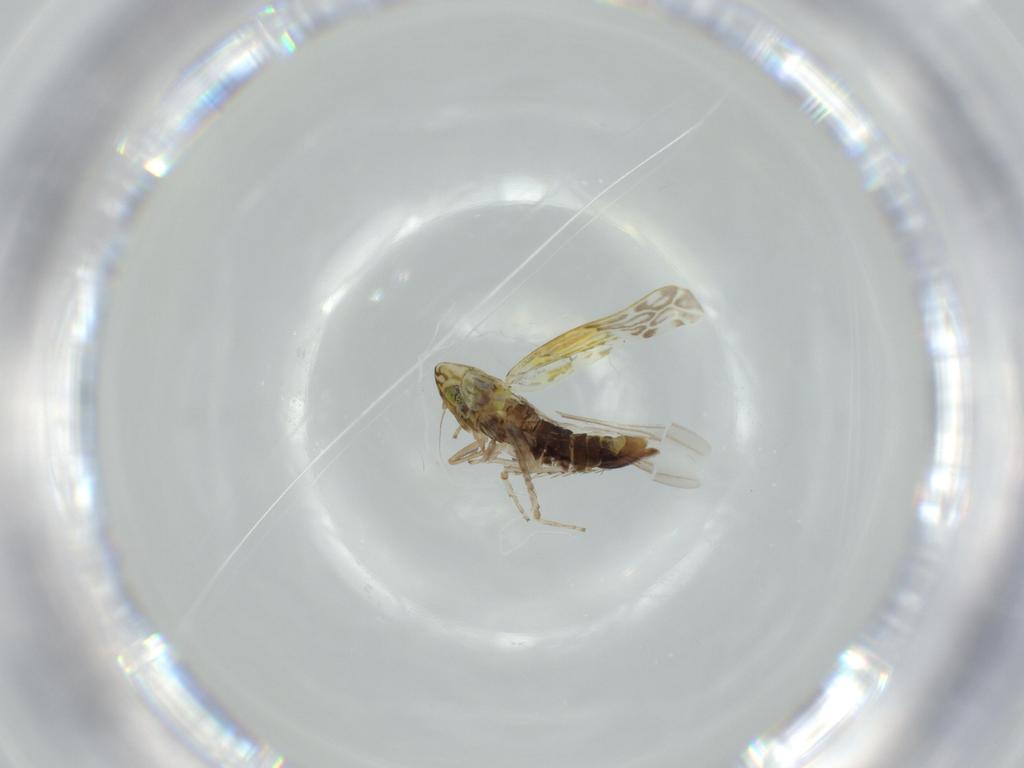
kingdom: Animalia
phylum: Arthropoda
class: Insecta
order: Hemiptera
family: Cicadellidae
